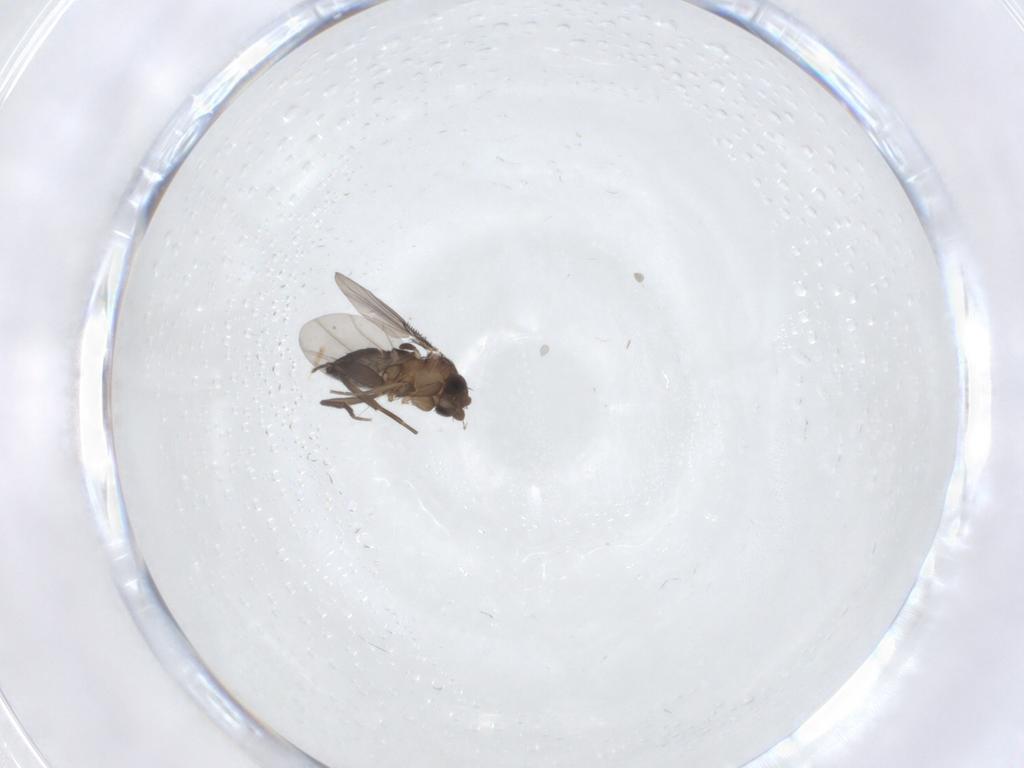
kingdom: Animalia
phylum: Arthropoda
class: Insecta
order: Diptera
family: Phoridae
